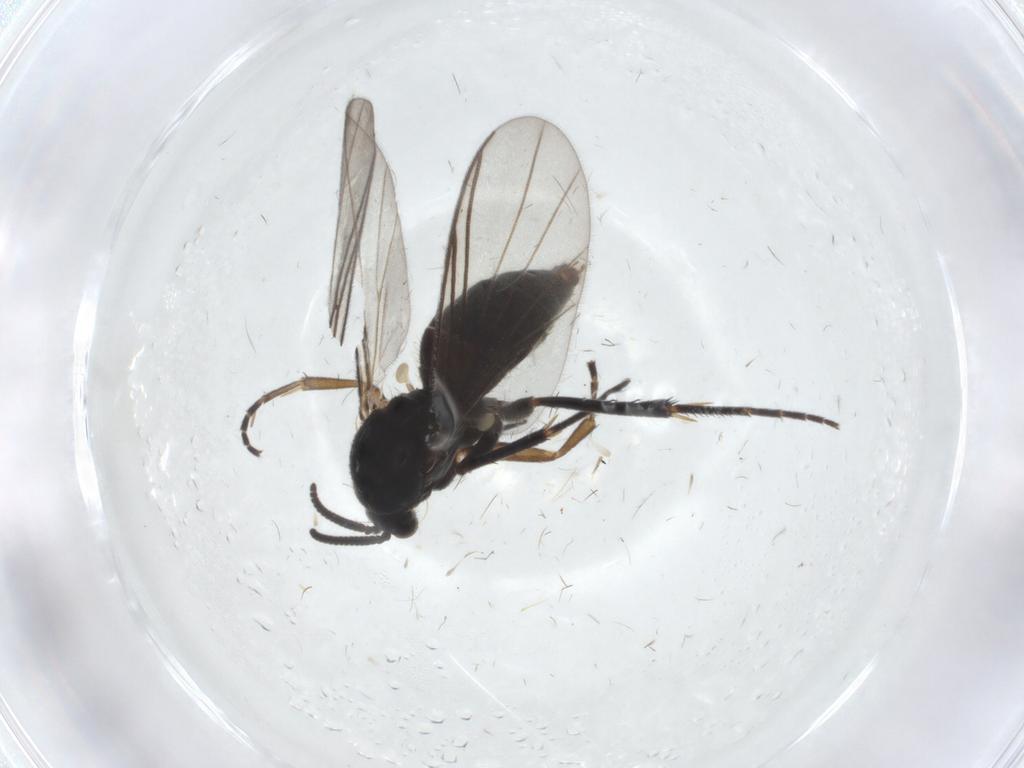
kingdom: Animalia
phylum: Arthropoda
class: Insecta
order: Diptera
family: Mycetophilidae
